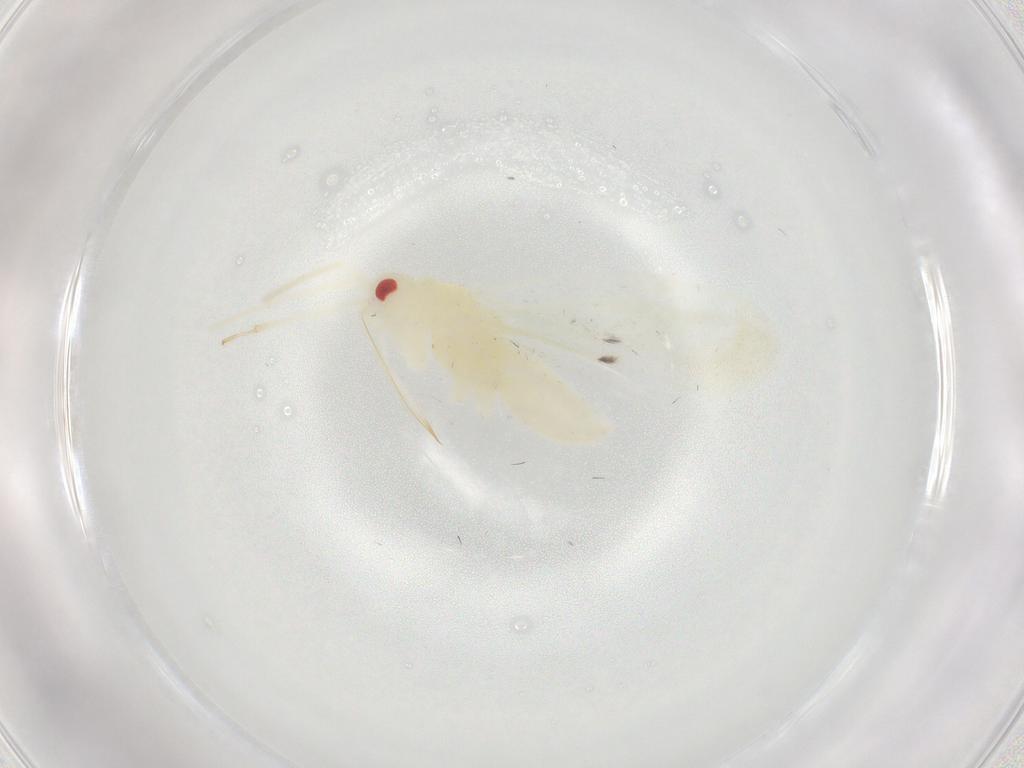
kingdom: Animalia
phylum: Arthropoda
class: Insecta
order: Hemiptera
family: Miridae
